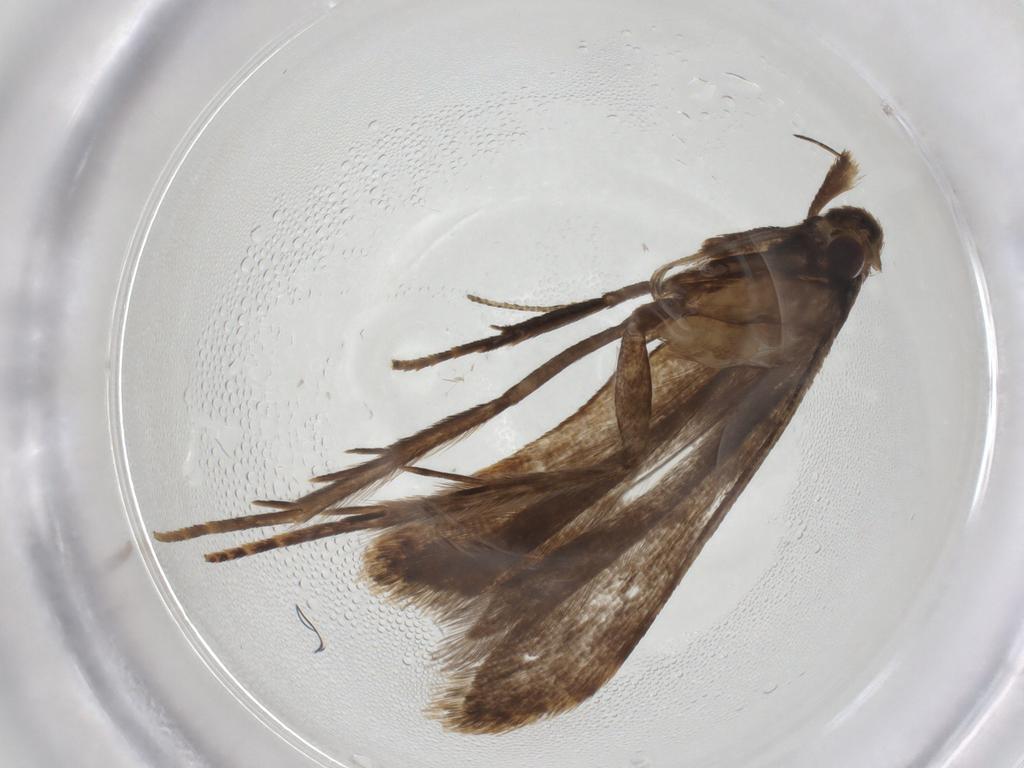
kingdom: Animalia
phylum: Arthropoda
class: Insecta
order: Lepidoptera
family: Gelechiidae
